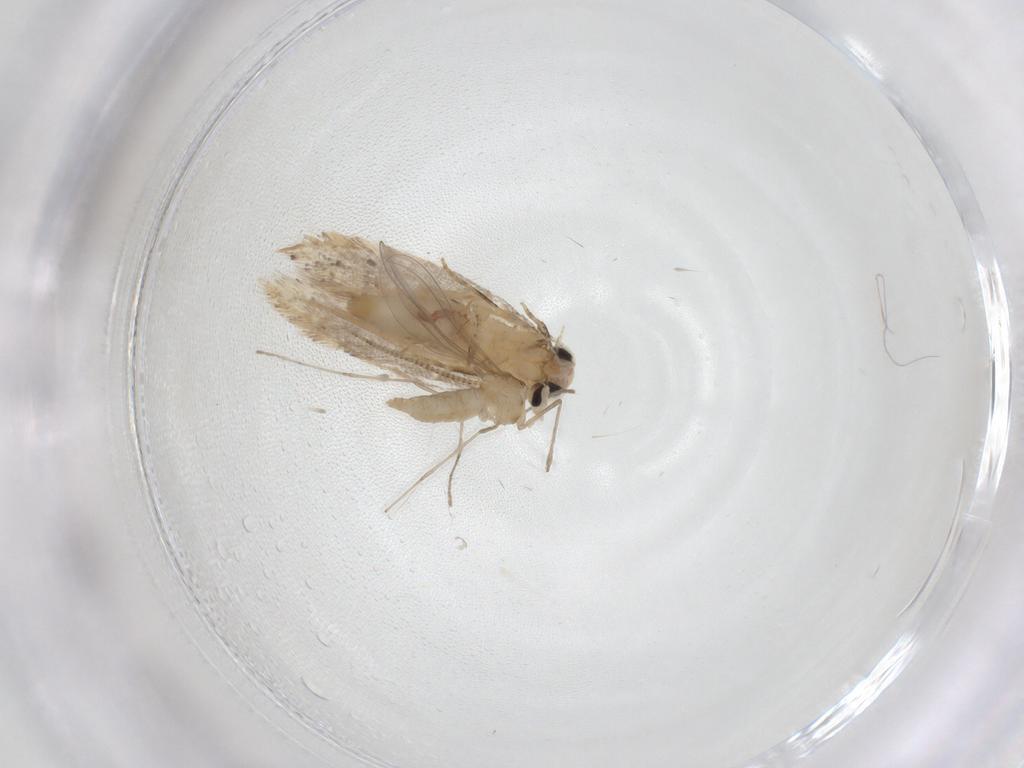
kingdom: Animalia
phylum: Arthropoda
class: Insecta
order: Lepidoptera
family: Tineidae
